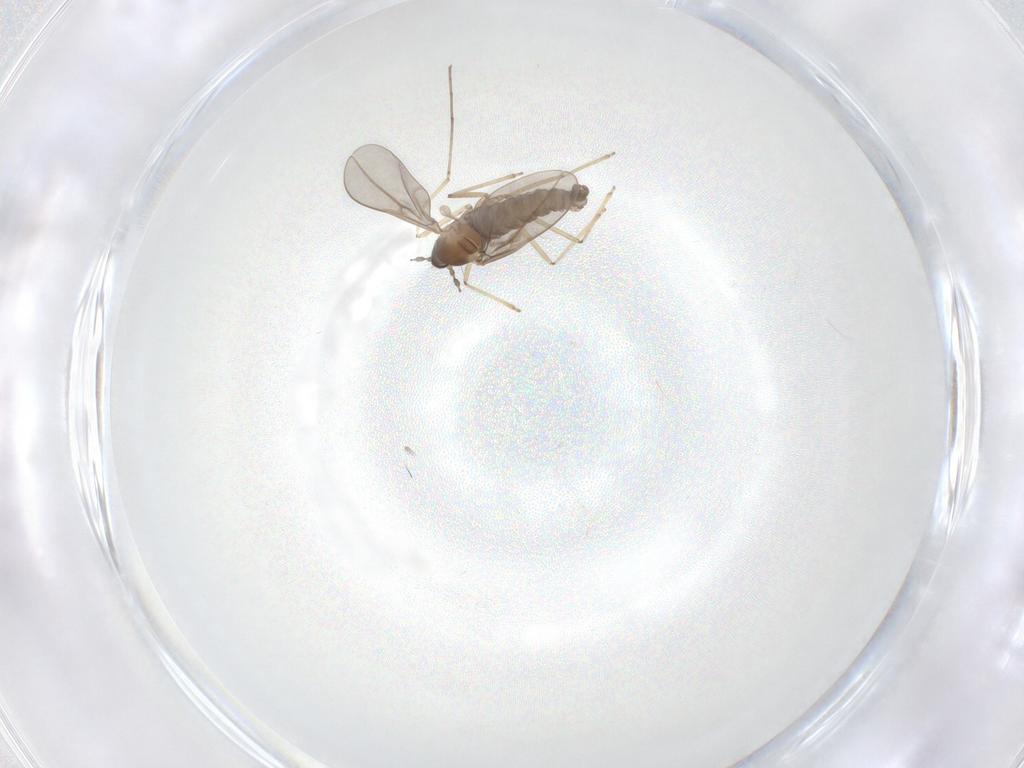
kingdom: Animalia
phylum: Arthropoda
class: Insecta
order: Diptera
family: Cecidomyiidae
